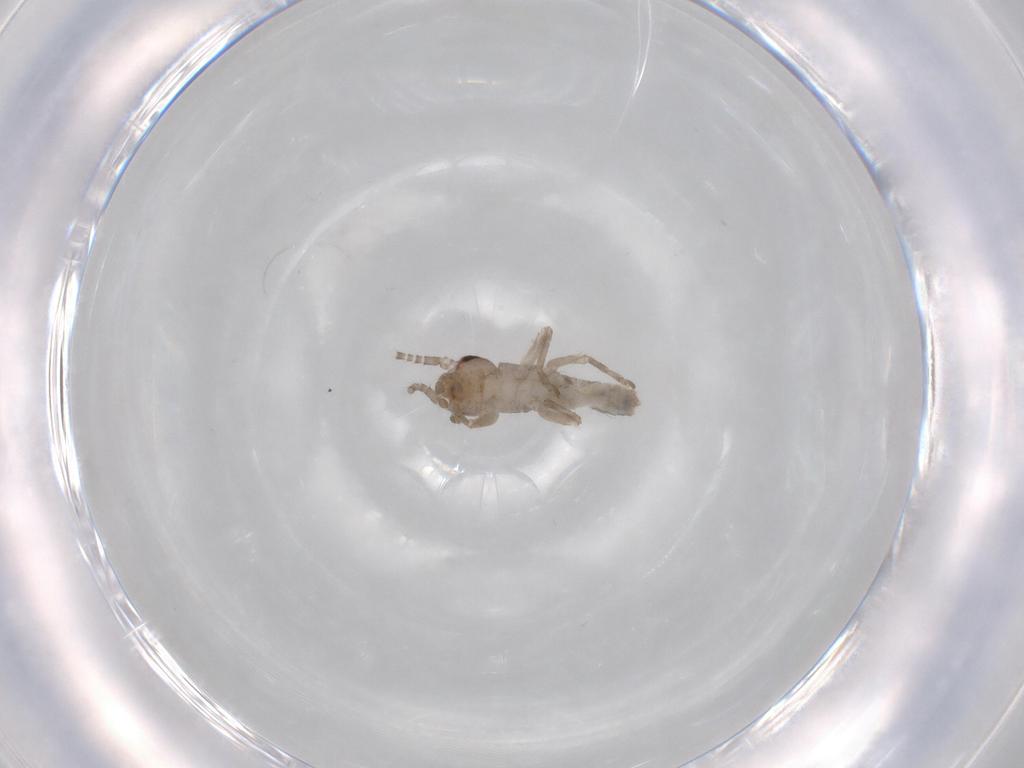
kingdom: Animalia
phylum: Arthropoda
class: Insecta
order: Orthoptera
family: Mogoplistidae
